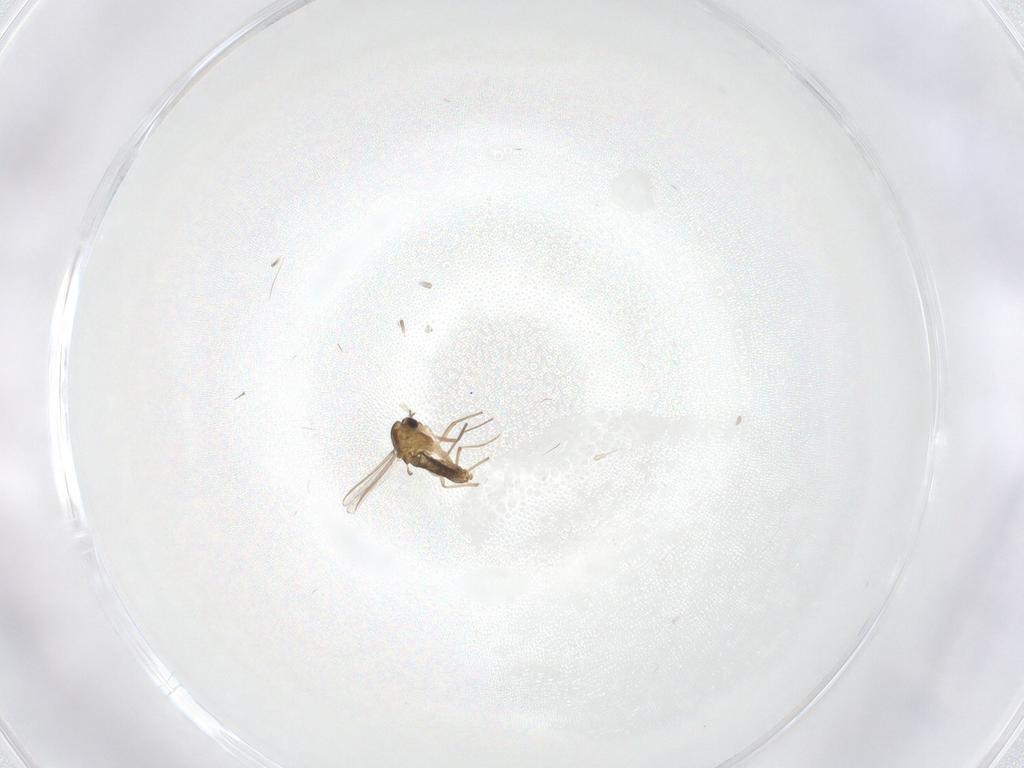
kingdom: Animalia
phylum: Arthropoda
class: Insecta
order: Diptera
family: Chironomidae
